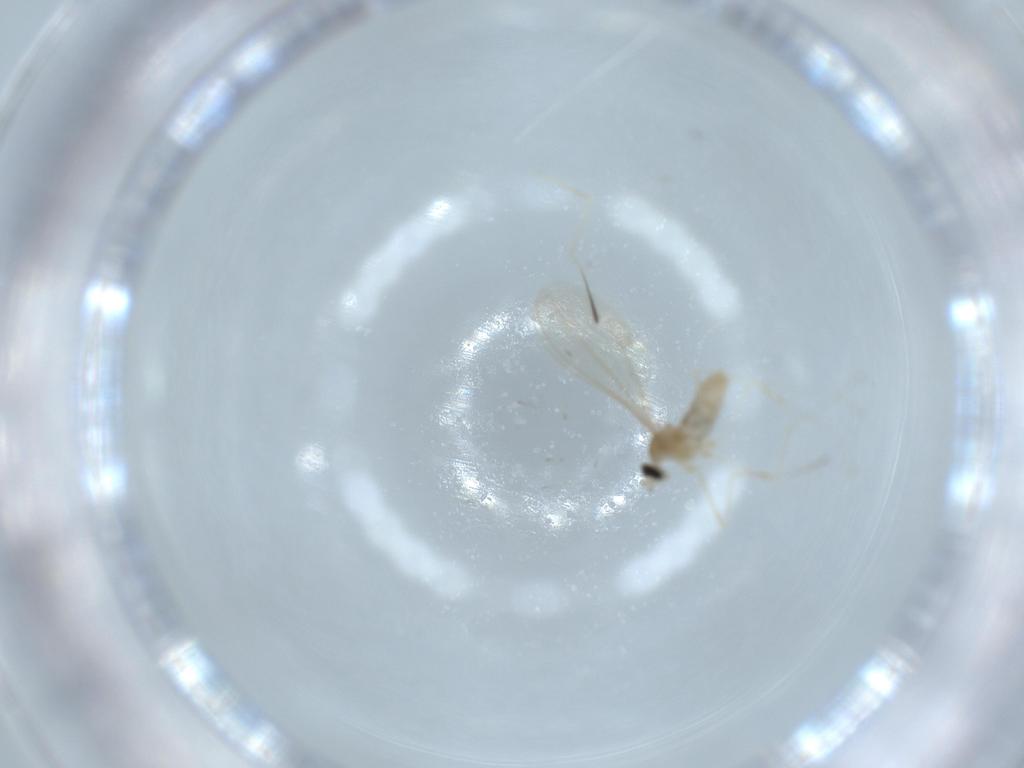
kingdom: Animalia
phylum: Arthropoda
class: Insecta
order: Diptera
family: Cecidomyiidae
